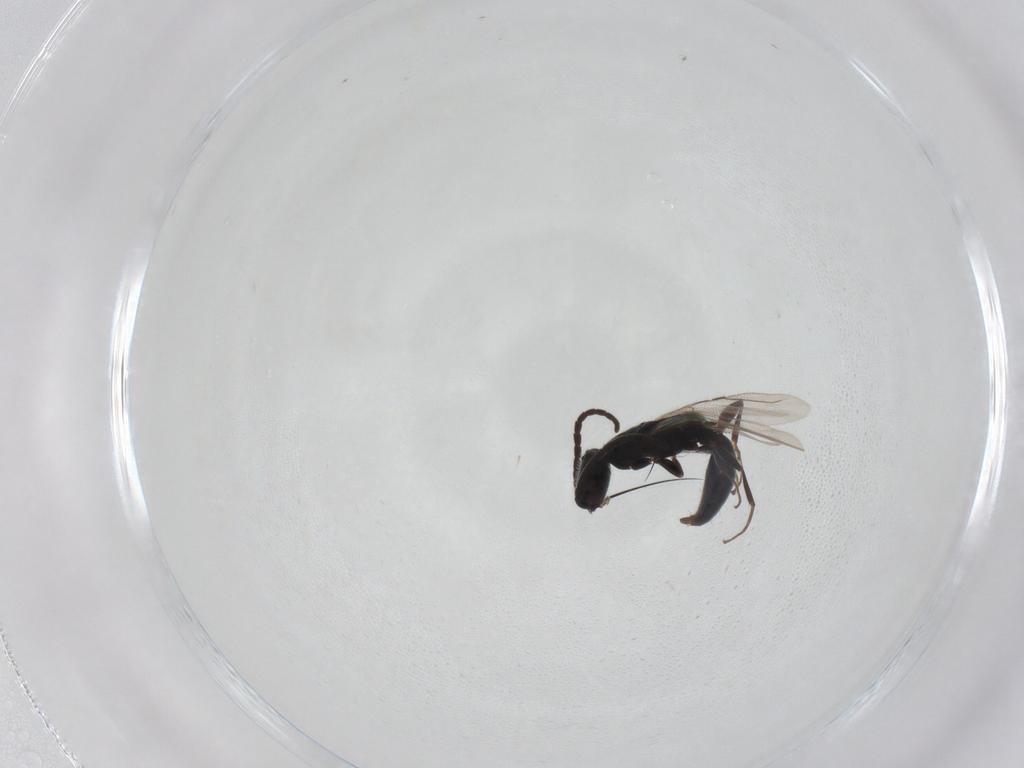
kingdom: Animalia
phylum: Arthropoda
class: Insecta
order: Hymenoptera
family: Bethylidae
